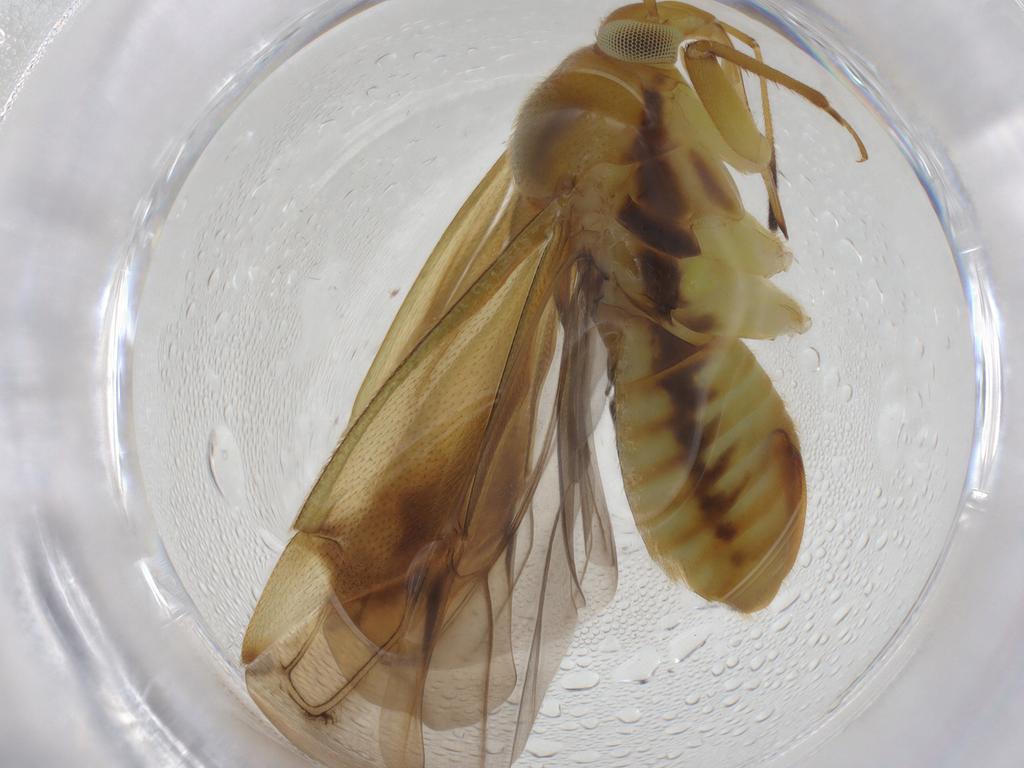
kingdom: Animalia
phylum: Arthropoda
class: Insecta
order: Hemiptera
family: Miridae
